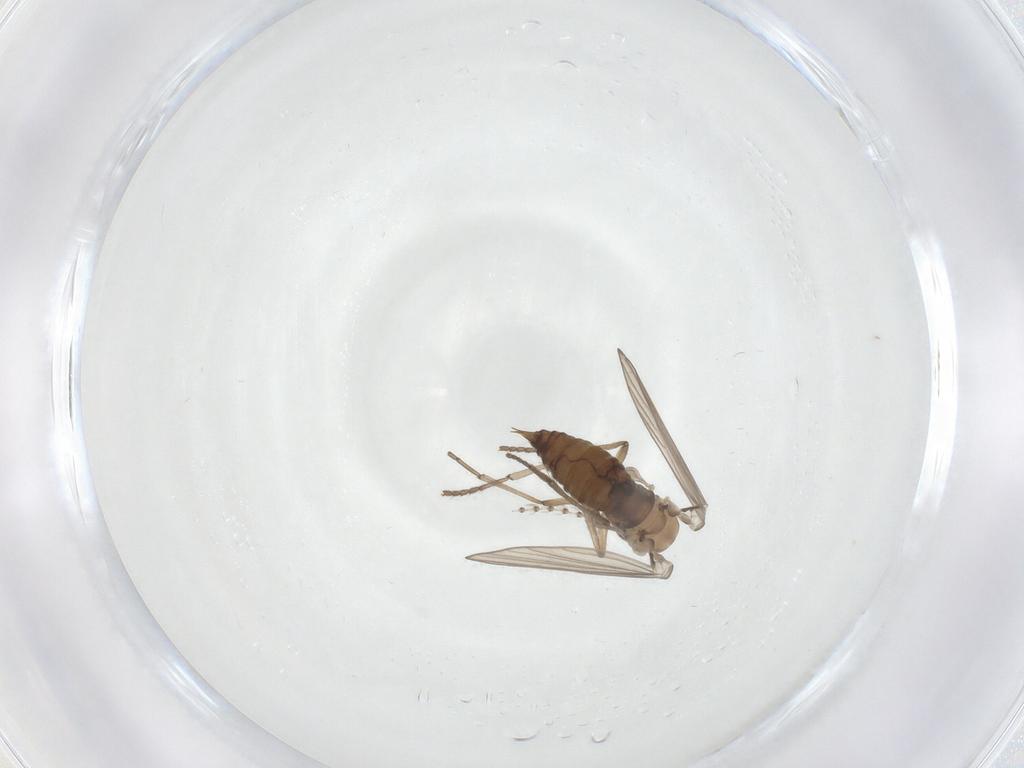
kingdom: Animalia
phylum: Arthropoda
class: Insecta
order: Diptera
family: Psychodidae
